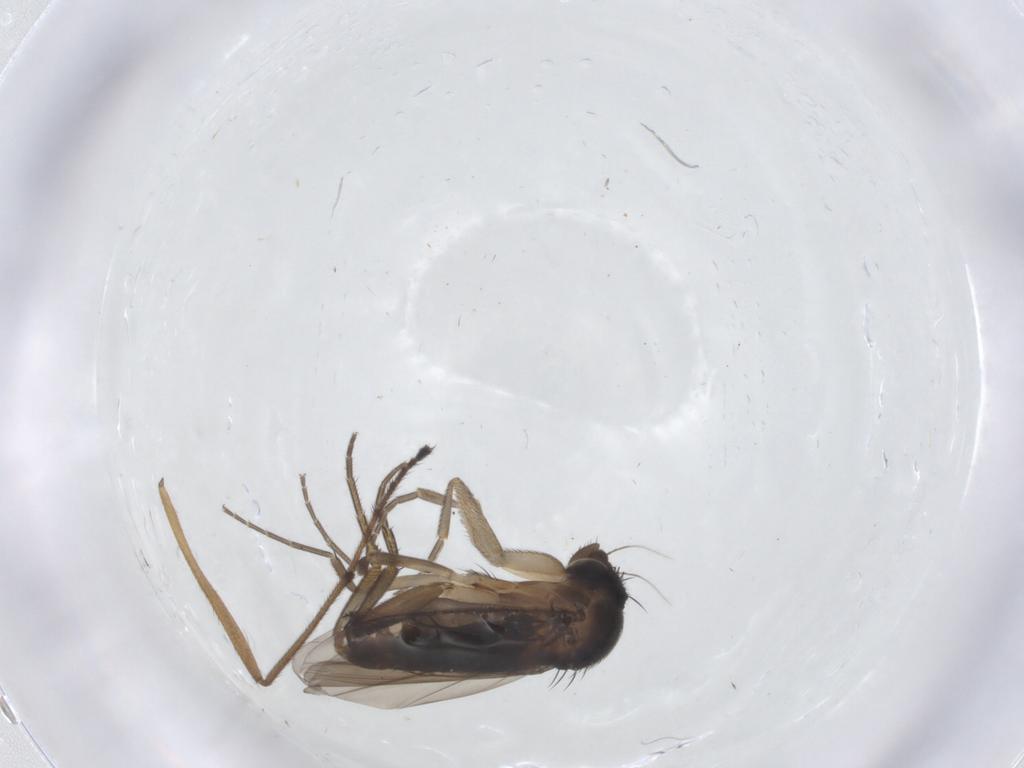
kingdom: Animalia
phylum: Arthropoda
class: Insecta
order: Diptera
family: Phoridae
